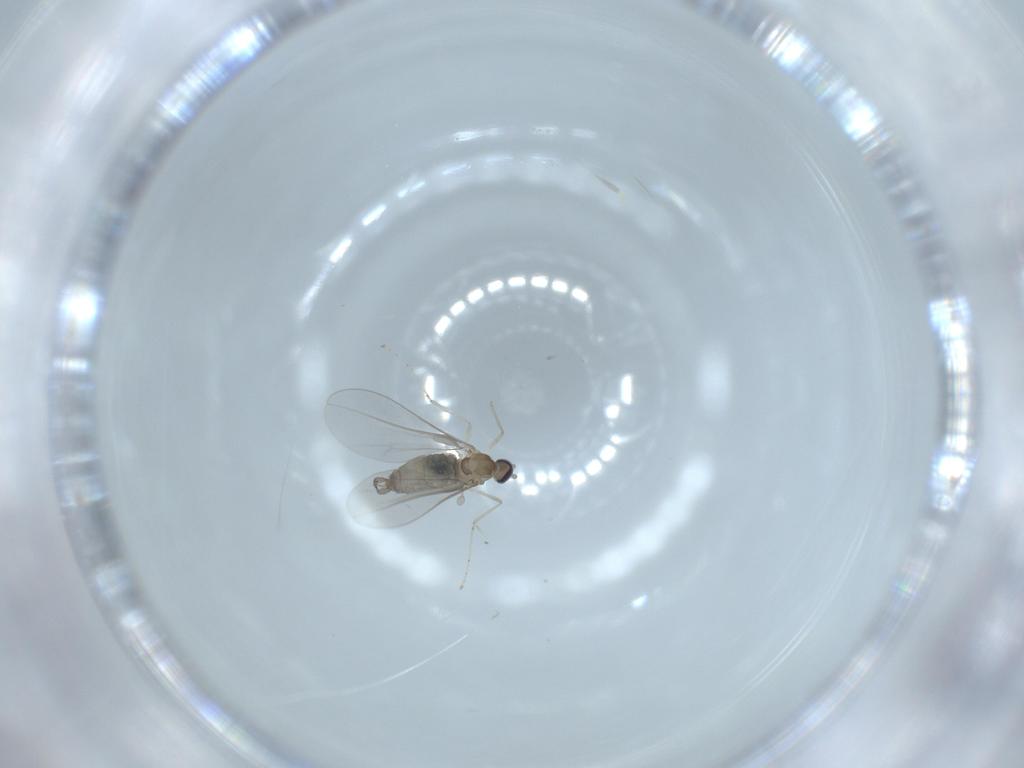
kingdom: Animalia
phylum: Arthropoda
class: Insecta
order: Diptera
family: Chironomidae
